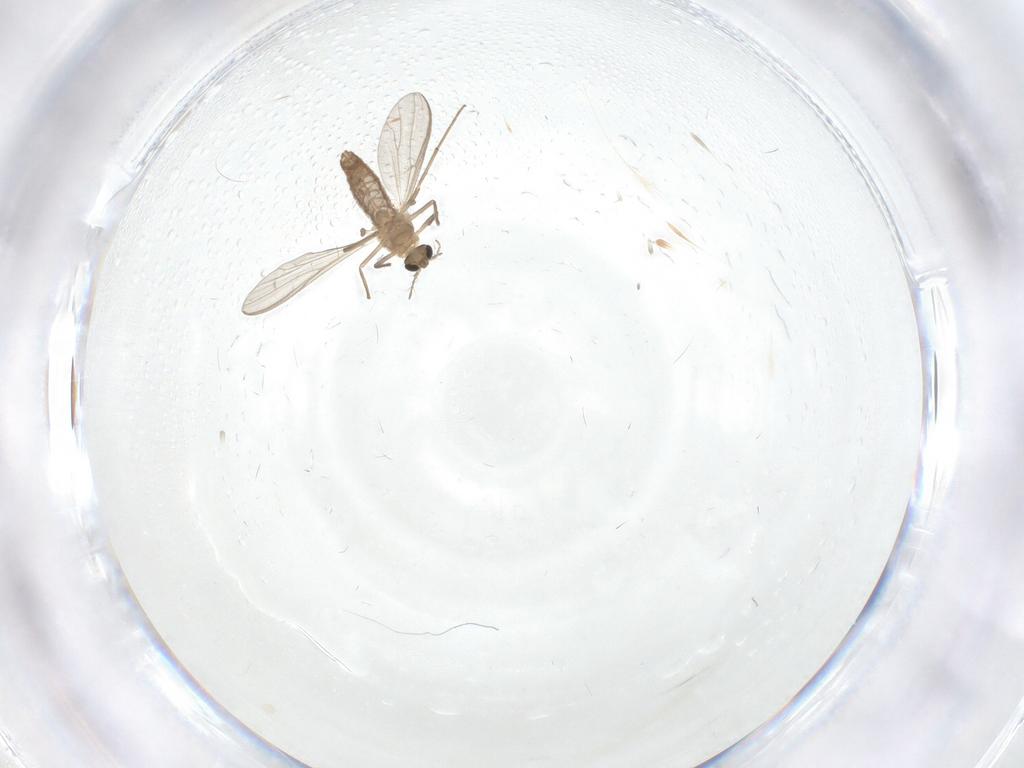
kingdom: Animalia
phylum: Arthropoda
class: Insecta
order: Diptera
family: Chironomidae
